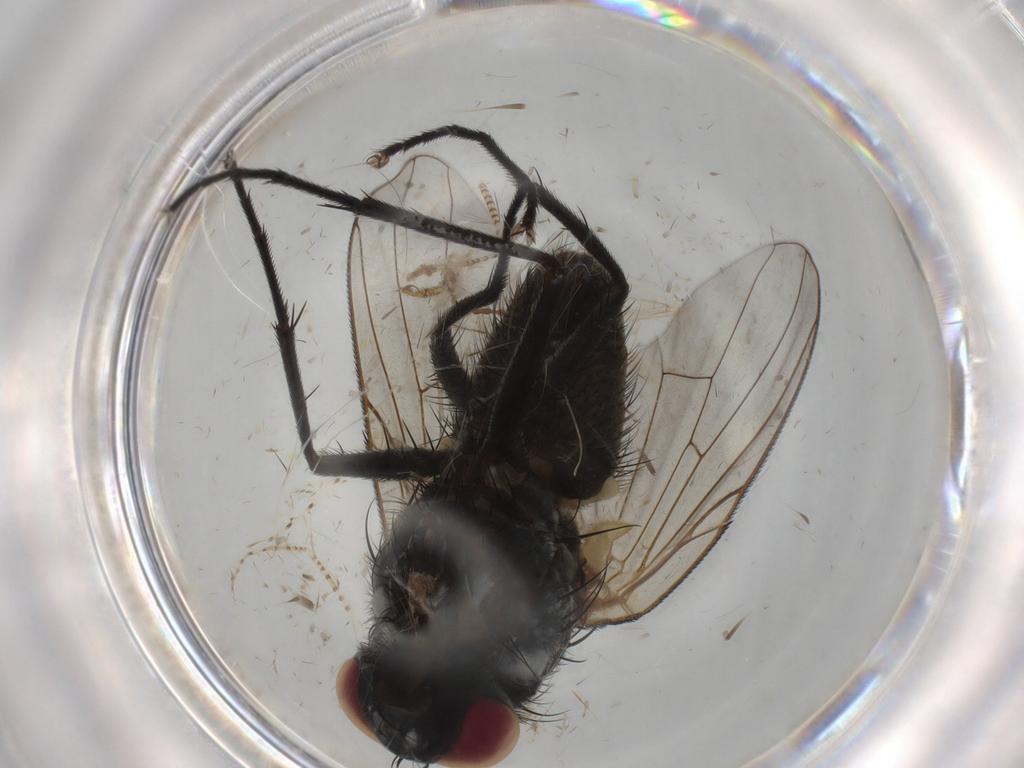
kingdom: Animalia
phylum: Arthropoda
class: Insecta
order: Diptera
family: Muscidae
